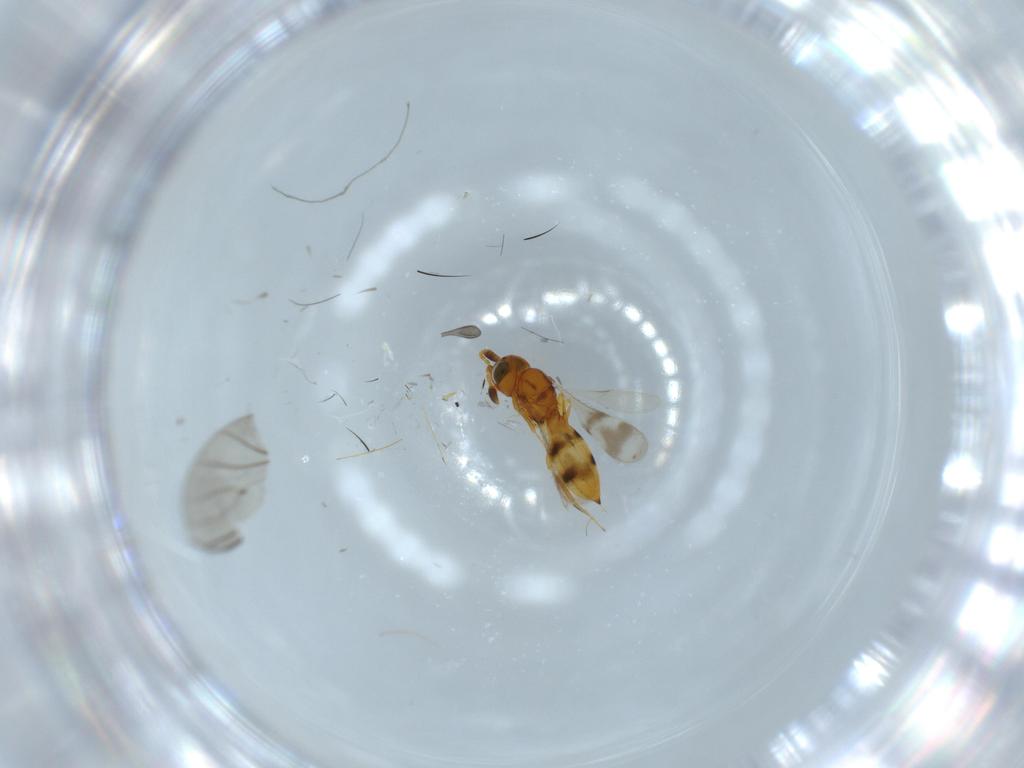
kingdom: Animalia
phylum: Arthropoda
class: Insecta
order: Hymenoptera
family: Scelionidae
